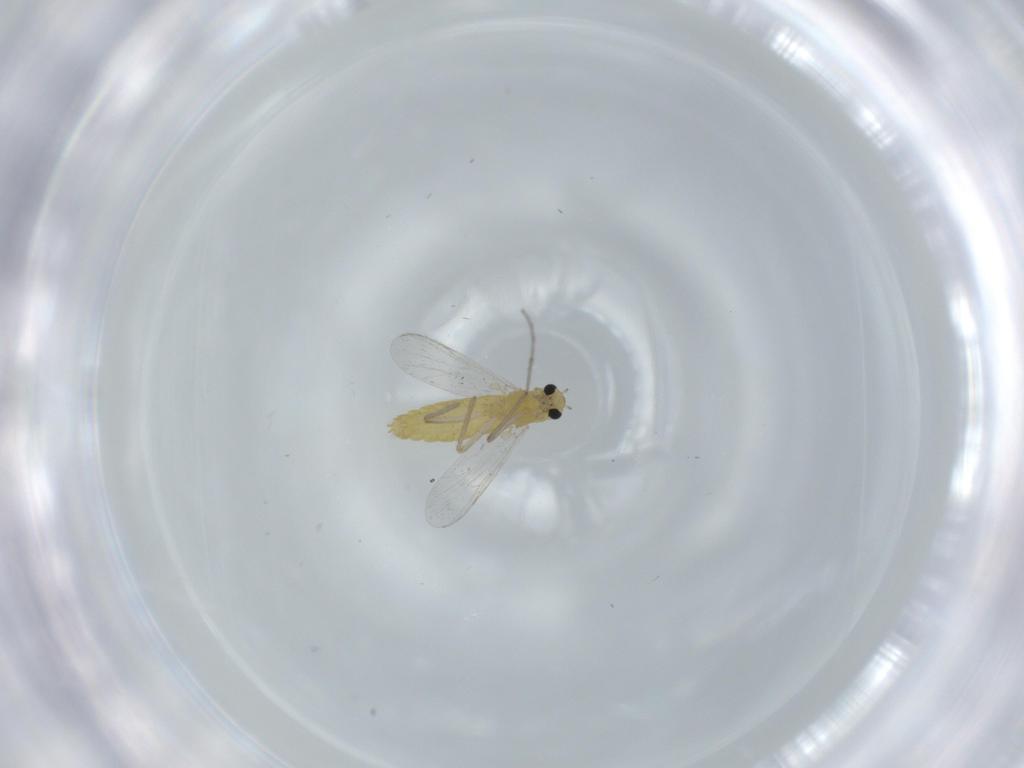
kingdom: Animalia
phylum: Arthropoda
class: Insecta
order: Diptera
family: Chironomidae
